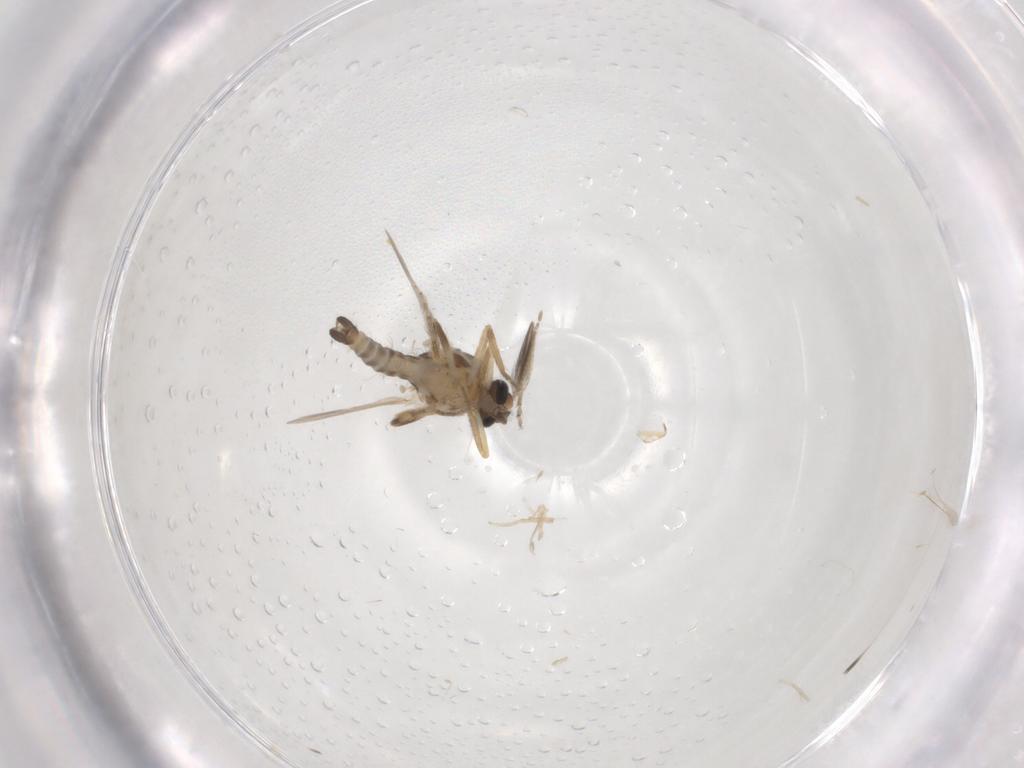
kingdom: Animalia
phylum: Arthropoda
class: Insecta
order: Diptera
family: Ceratopogonidae
